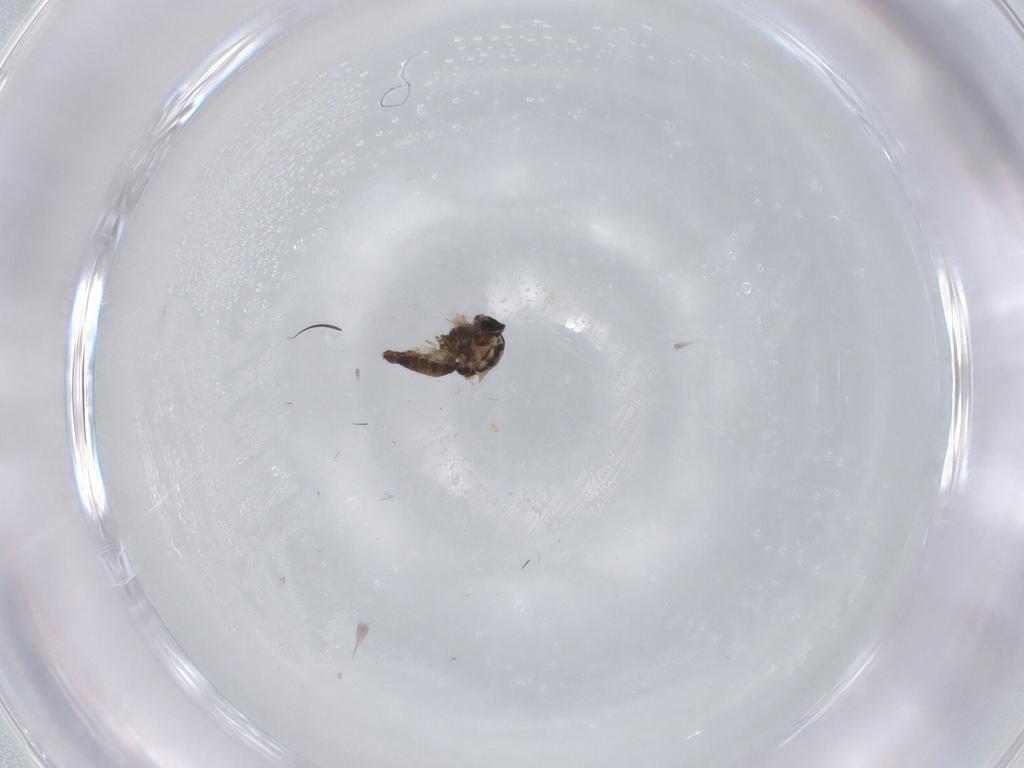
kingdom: Animalia
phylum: Arthropoda
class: Insecta
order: Diptera
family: Ceratopogonidae
